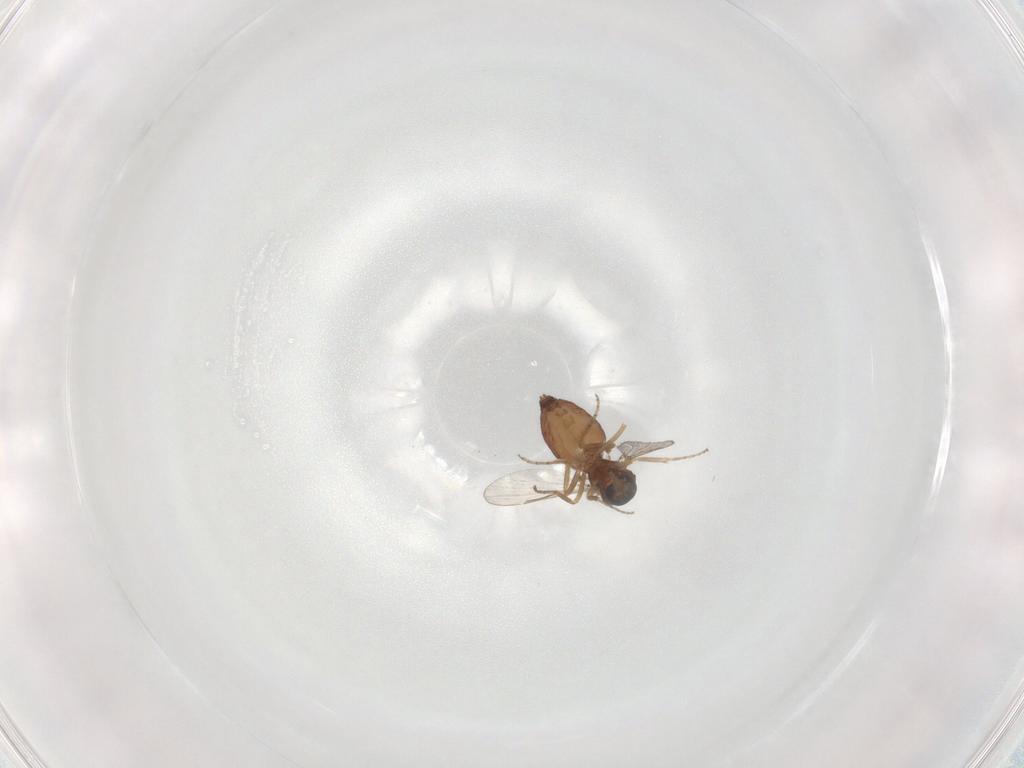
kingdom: Animalia
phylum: Arthropoda
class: Insecta
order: Diptera
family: Ceratopogonidae
